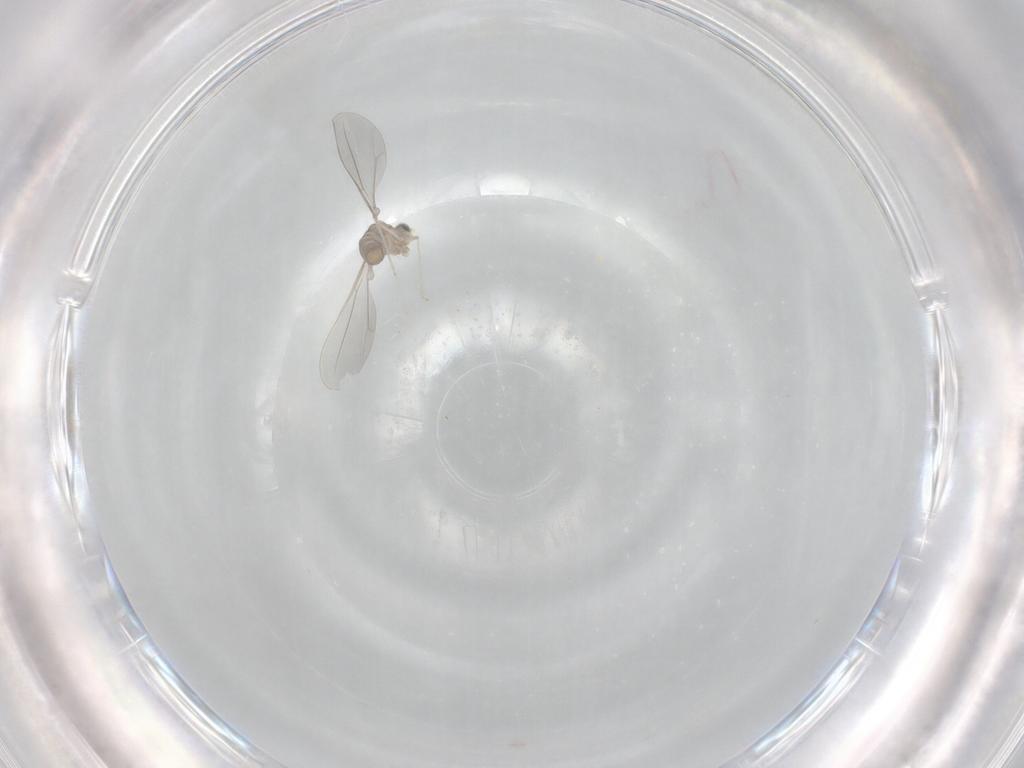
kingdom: Animalia
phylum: Arthropoda
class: Insecta
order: Diptera
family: Cecidomyiidae
